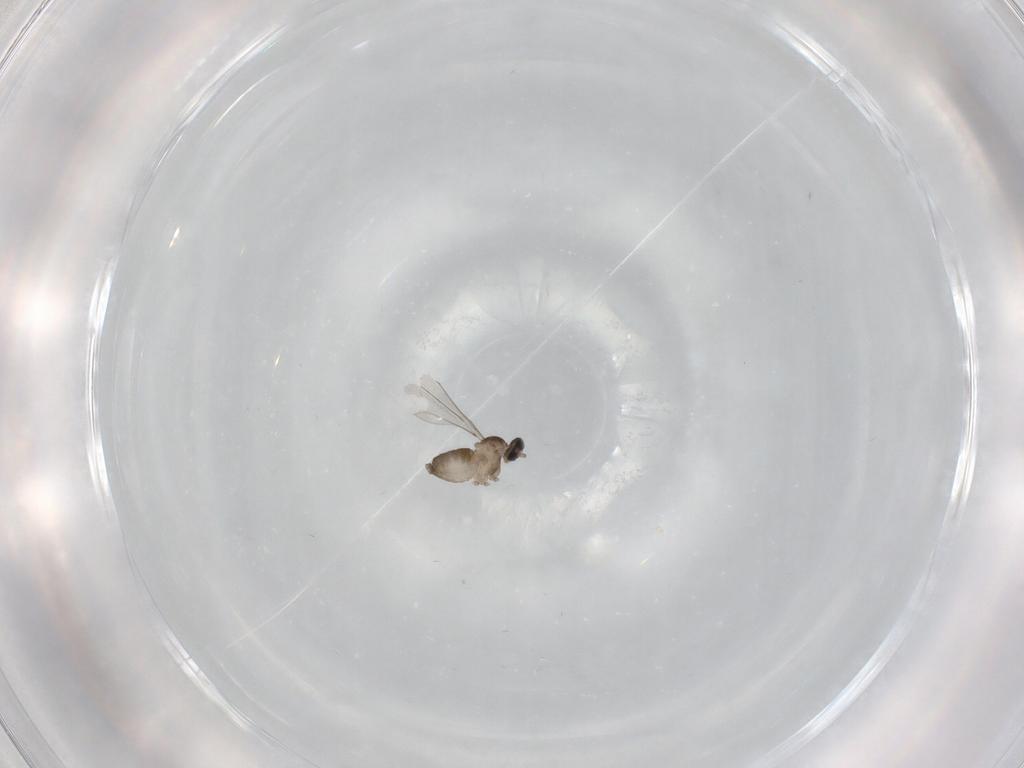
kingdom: Animalia
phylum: Arthropoda
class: Insecta
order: Diptera
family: Cecidomyiidae
